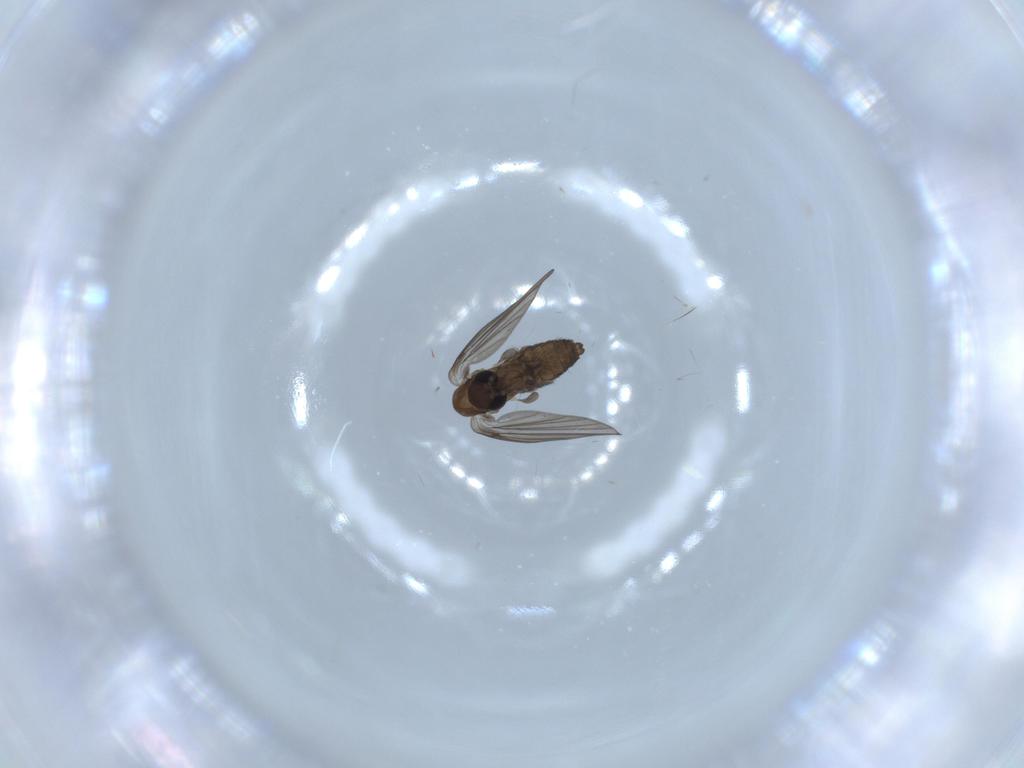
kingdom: Animalia
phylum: Arthropoda
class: Insecta
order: Diptera
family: Psychodidae
